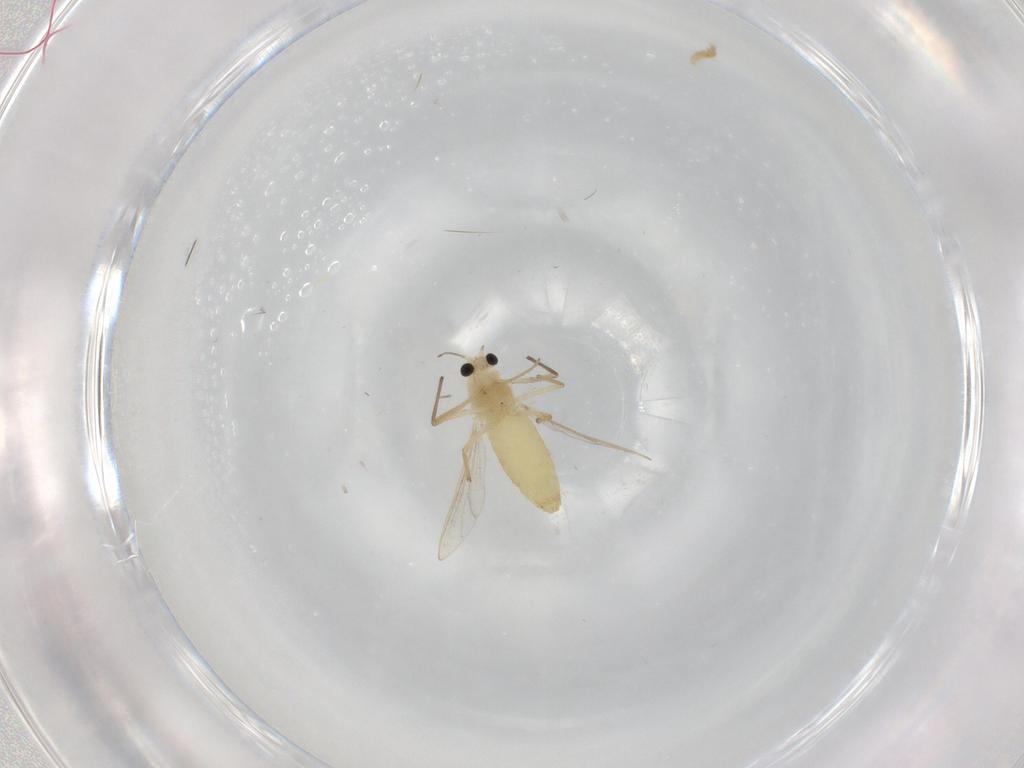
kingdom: Animalia
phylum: Arthropoda
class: Insecta
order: Diptera
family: Chironomidae
